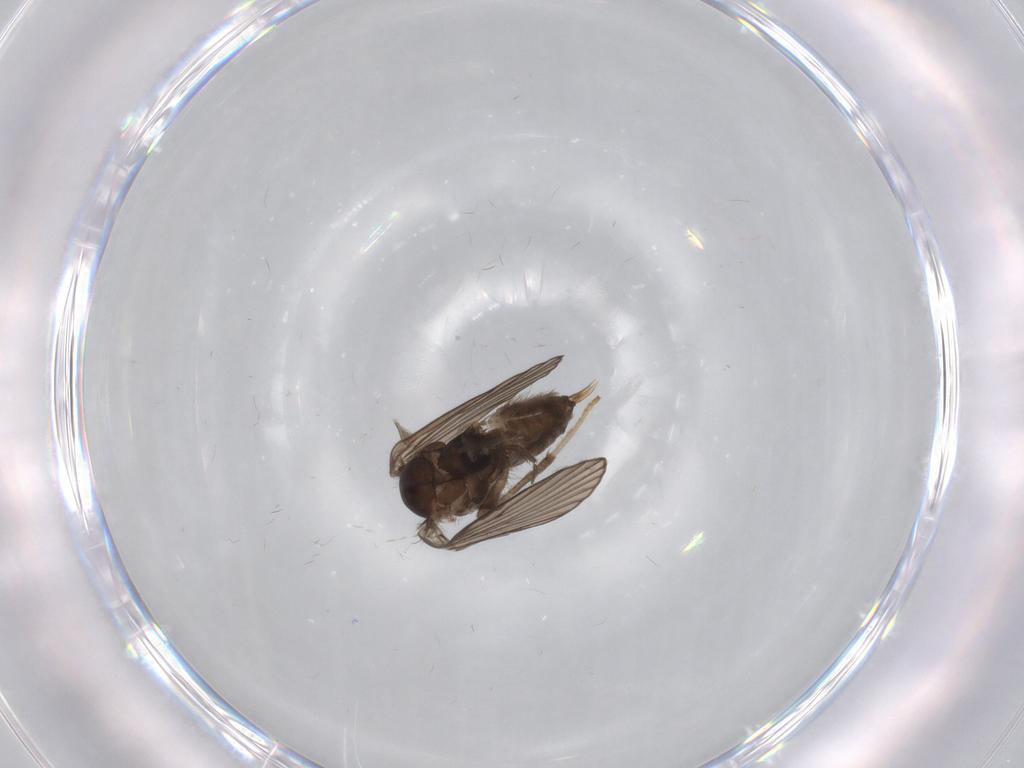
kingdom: Animalia
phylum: Arthropoda
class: Insecta
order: Diptera
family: Psychodidae
